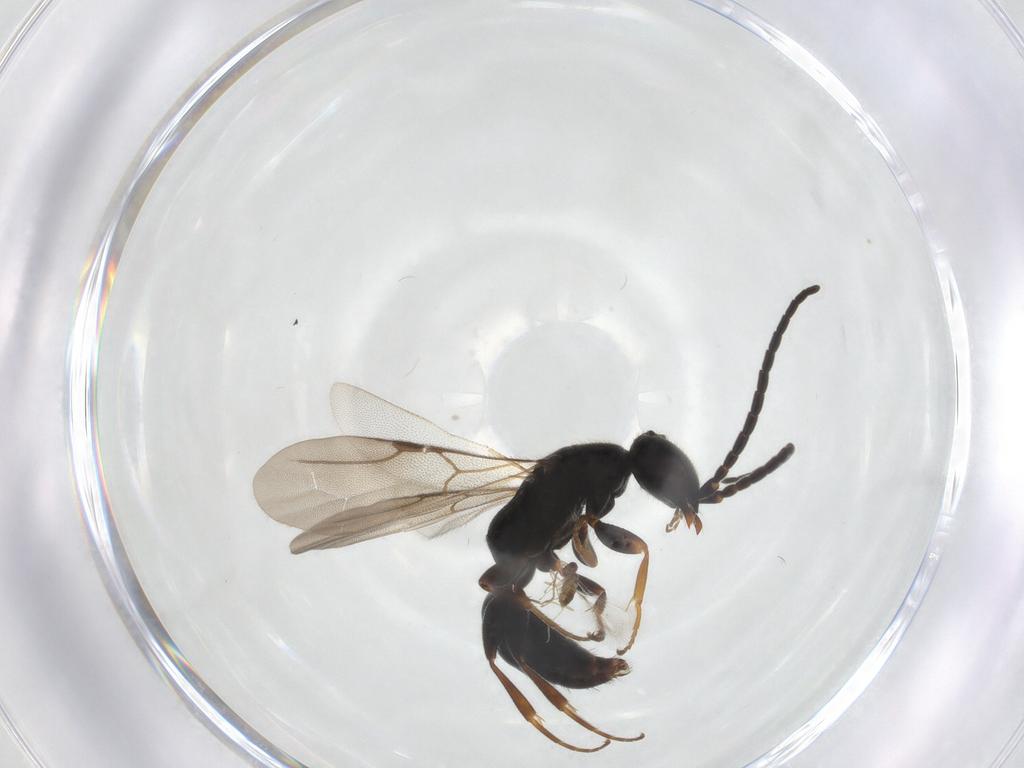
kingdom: Animalia
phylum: Arthropoda
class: Insecta
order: Hymenoptera
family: Bethylidae
